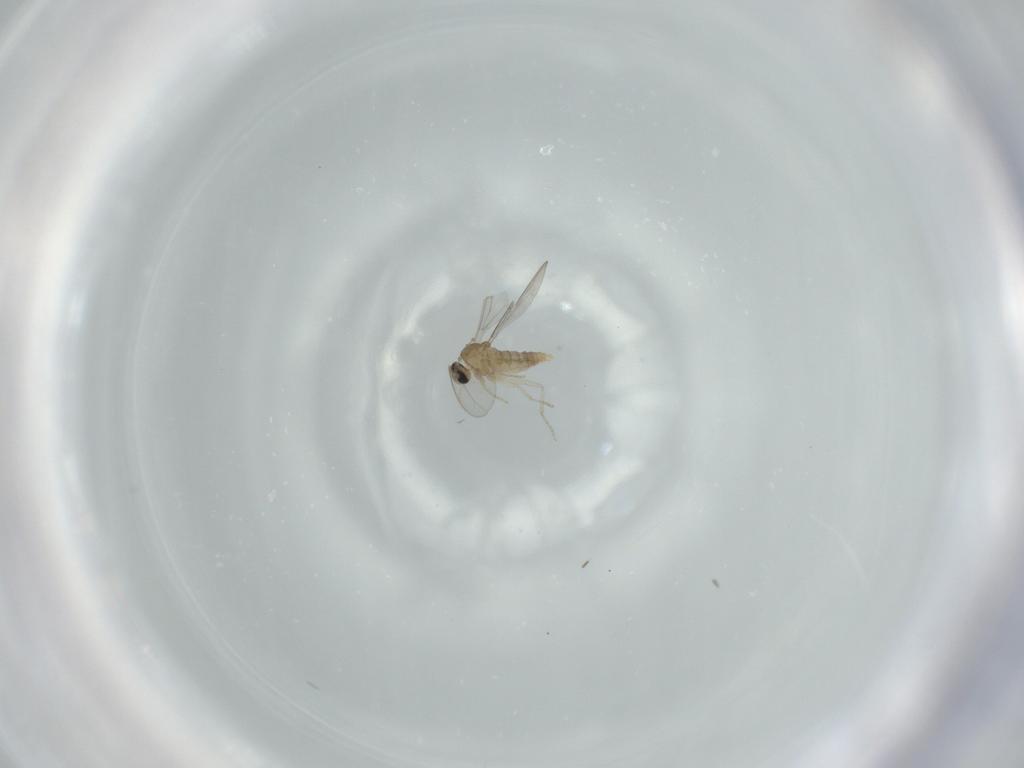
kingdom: Animalia
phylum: Arthropoda
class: Insecta
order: Diptera
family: Cecidomyiidae
